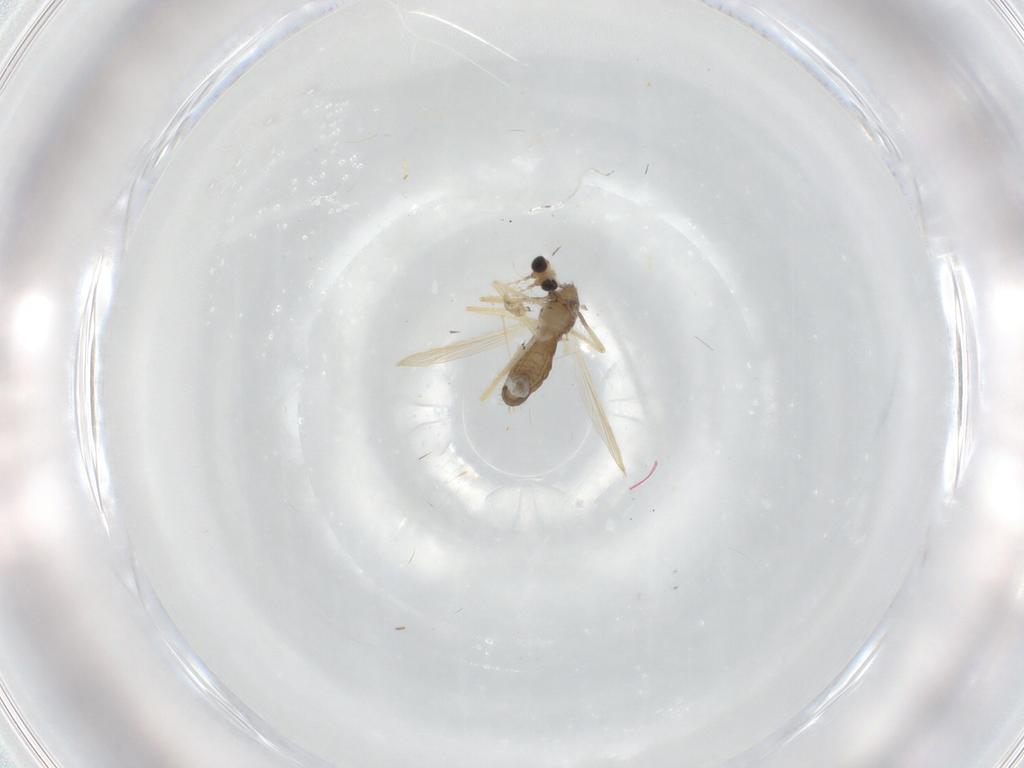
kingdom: Animalia
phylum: Arthropoda
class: Insecta
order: Diptera
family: Chironomidae
